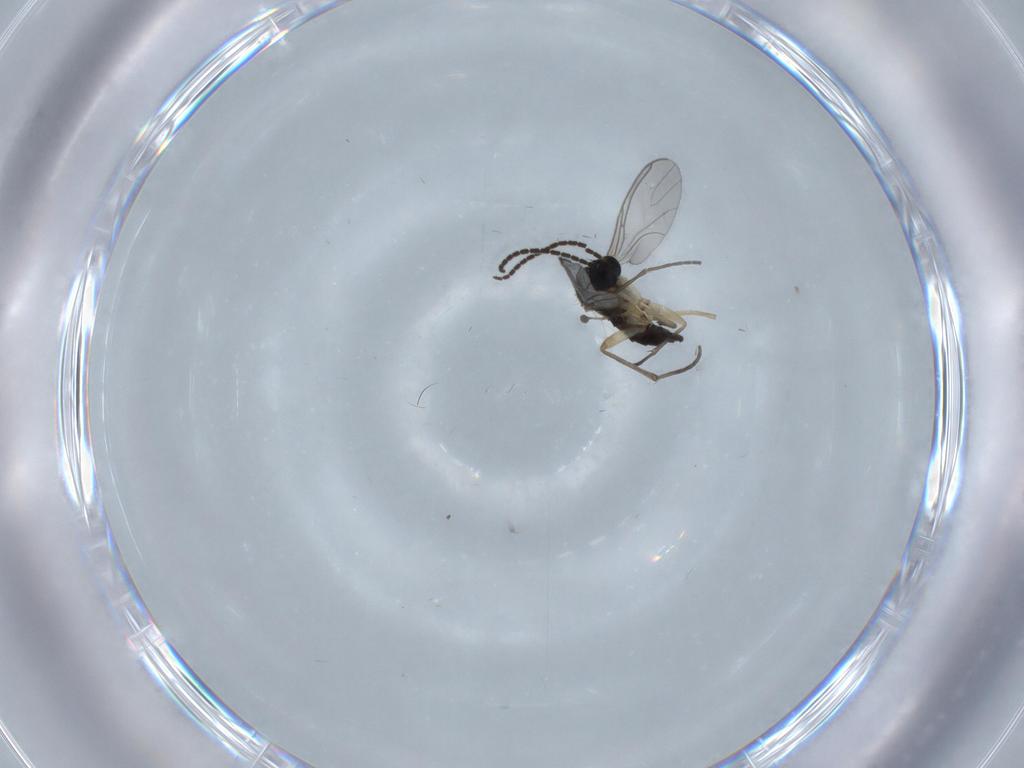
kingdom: Animalia
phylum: Arthropoda
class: Insecta
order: Diptera
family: Sciaridae
